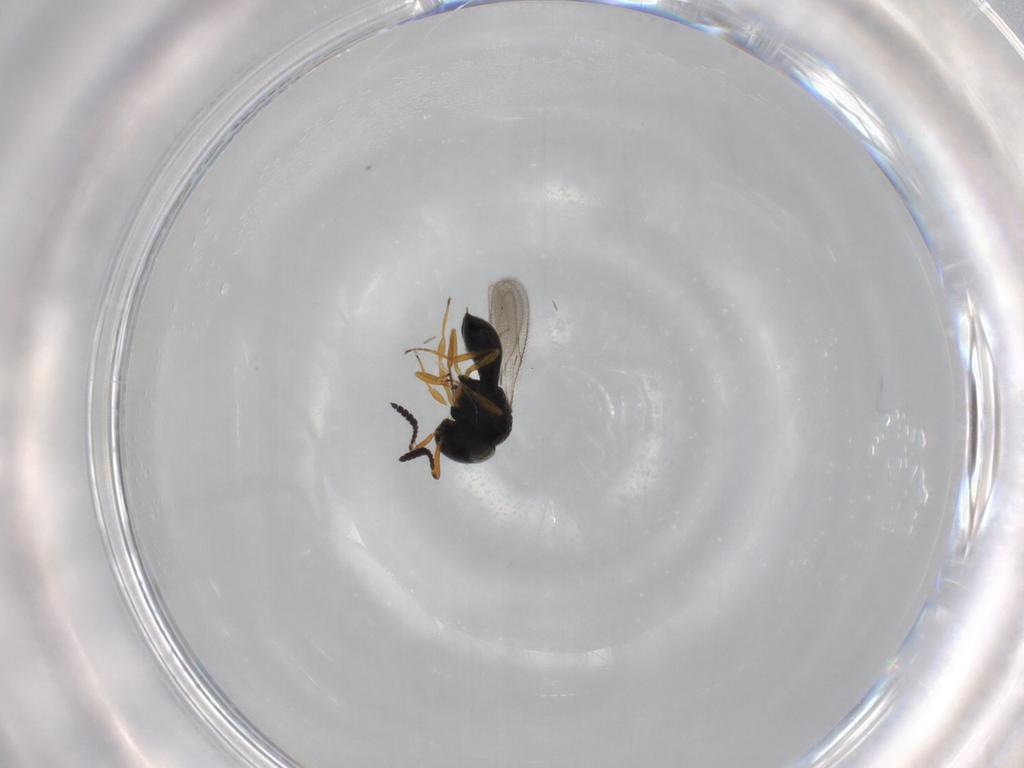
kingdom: Animalia
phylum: Arthropoda
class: Insecta
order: Hymenoptera
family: Scelionidae
